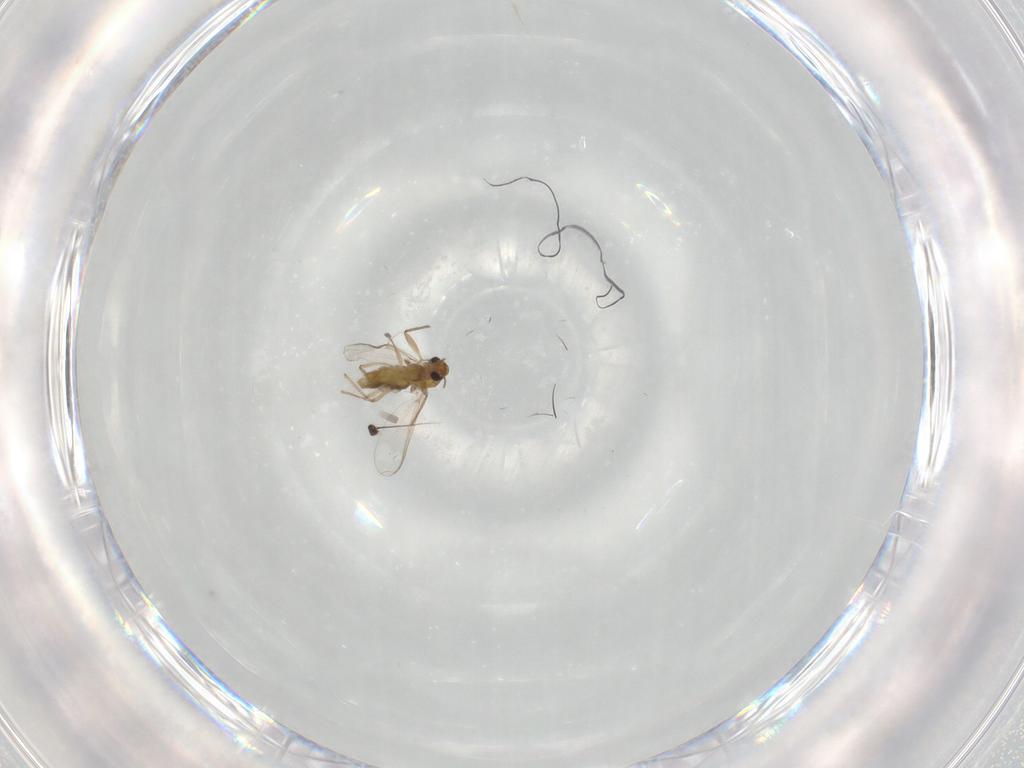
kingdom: Animalia
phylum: Arthropoda
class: Insecta
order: Diptera
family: Chironomidae
